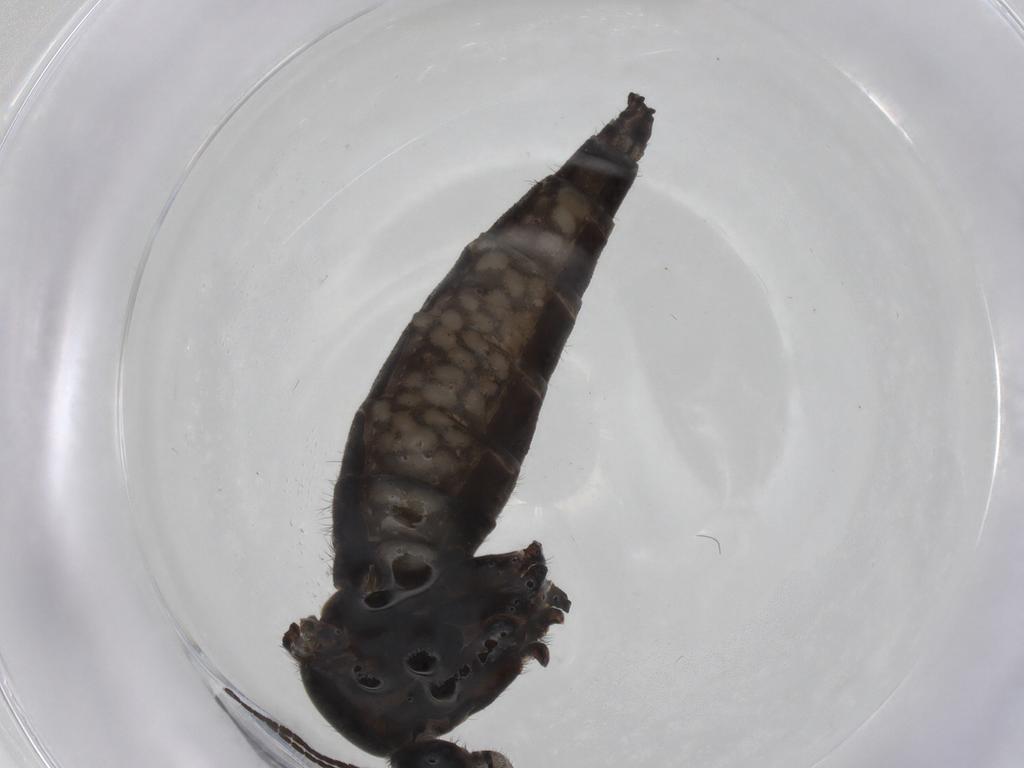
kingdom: Animalia
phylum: Arthropoda
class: Insecta
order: Diptera
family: Sciaridae
